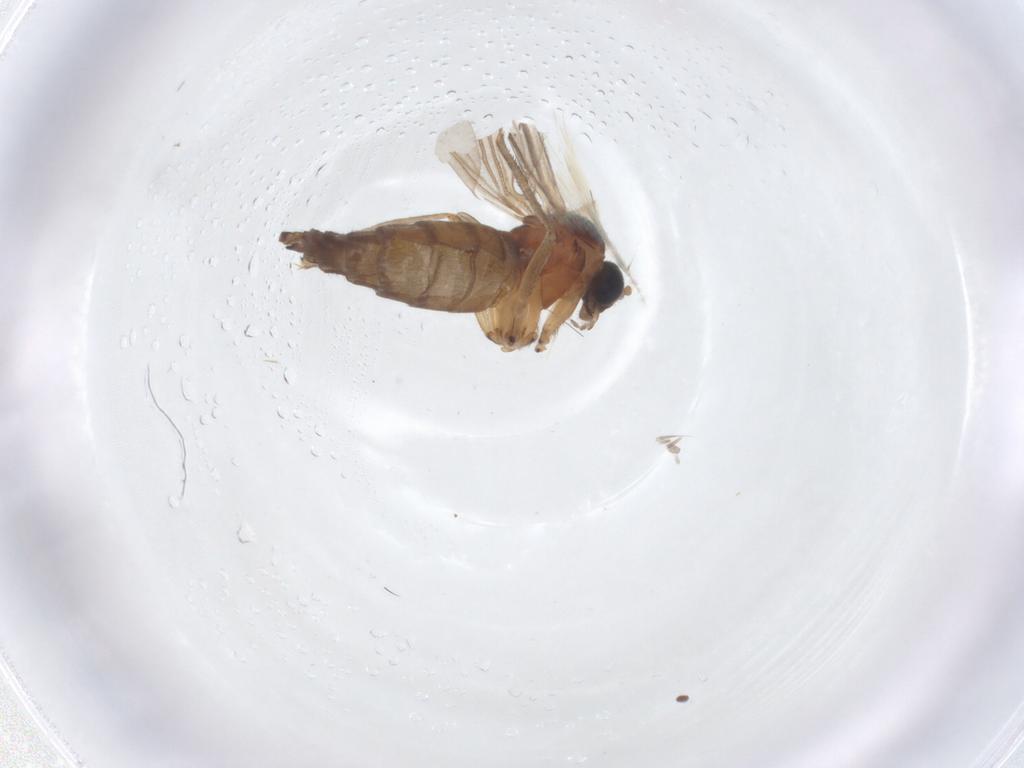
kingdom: Animalia
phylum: Arthropoda
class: Insecta
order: Diptera
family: Sciaridae
